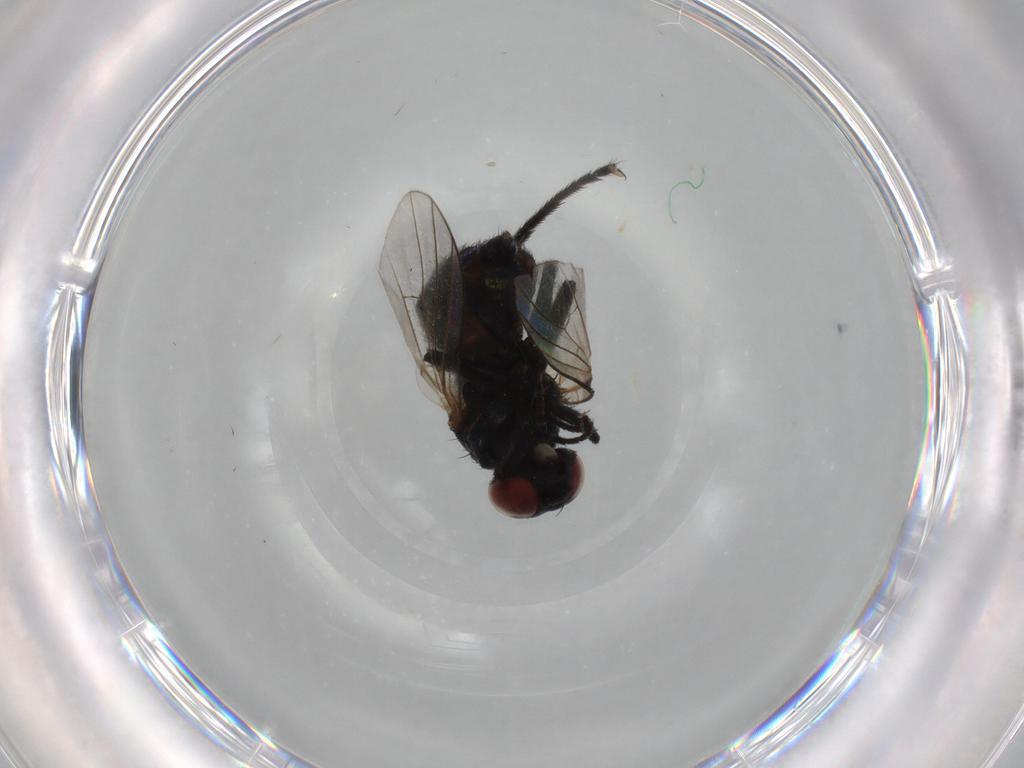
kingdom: Animalia
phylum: Arthropoda
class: Insecta
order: Diptera
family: Muscidae
